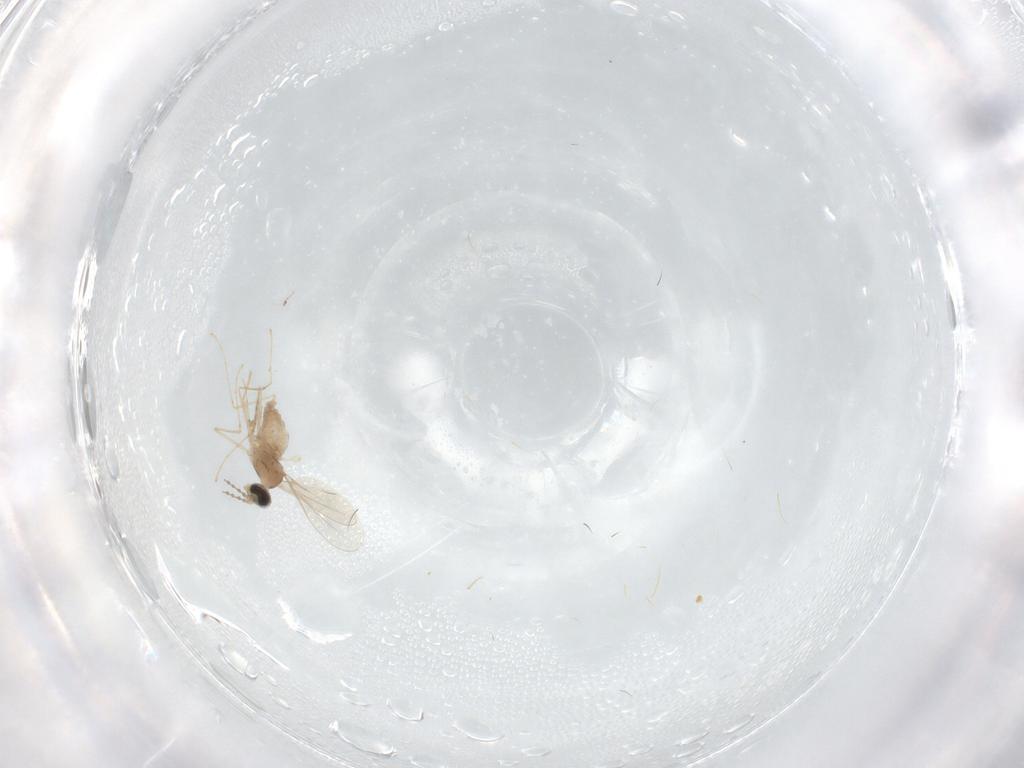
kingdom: Animalia
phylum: Arthropoda
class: Insecta
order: Diptera
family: Cecidomyiidae
